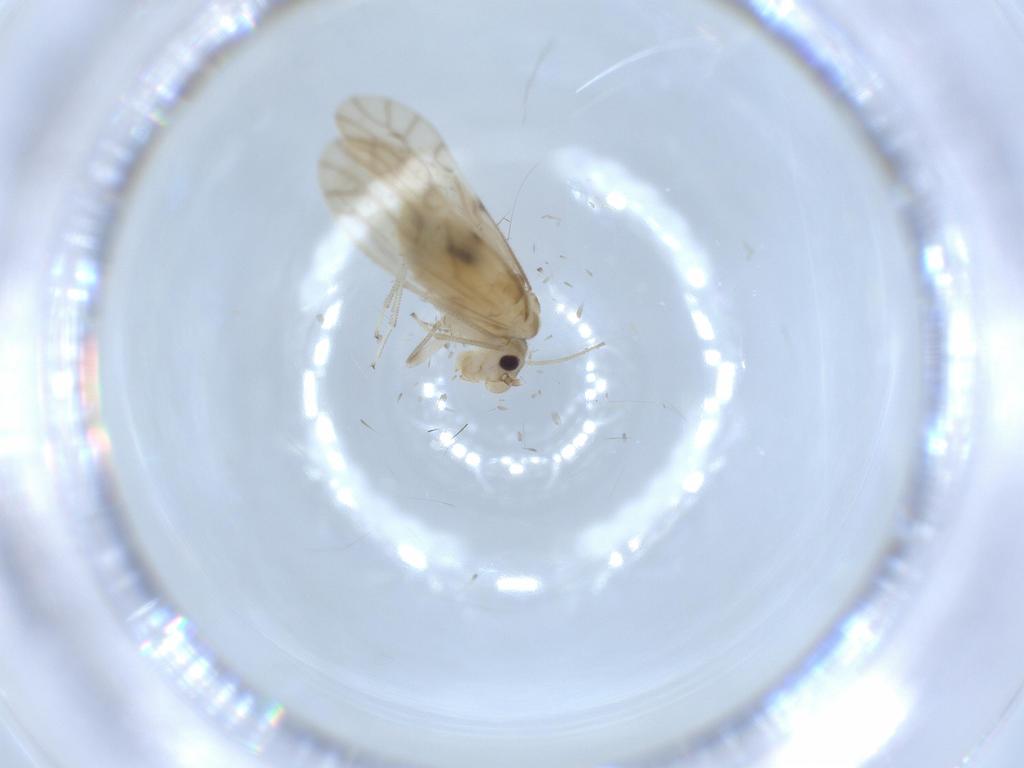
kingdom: Animalia
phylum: Arthropoda
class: Insecta
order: Psocodea
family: Caeciliusidae
